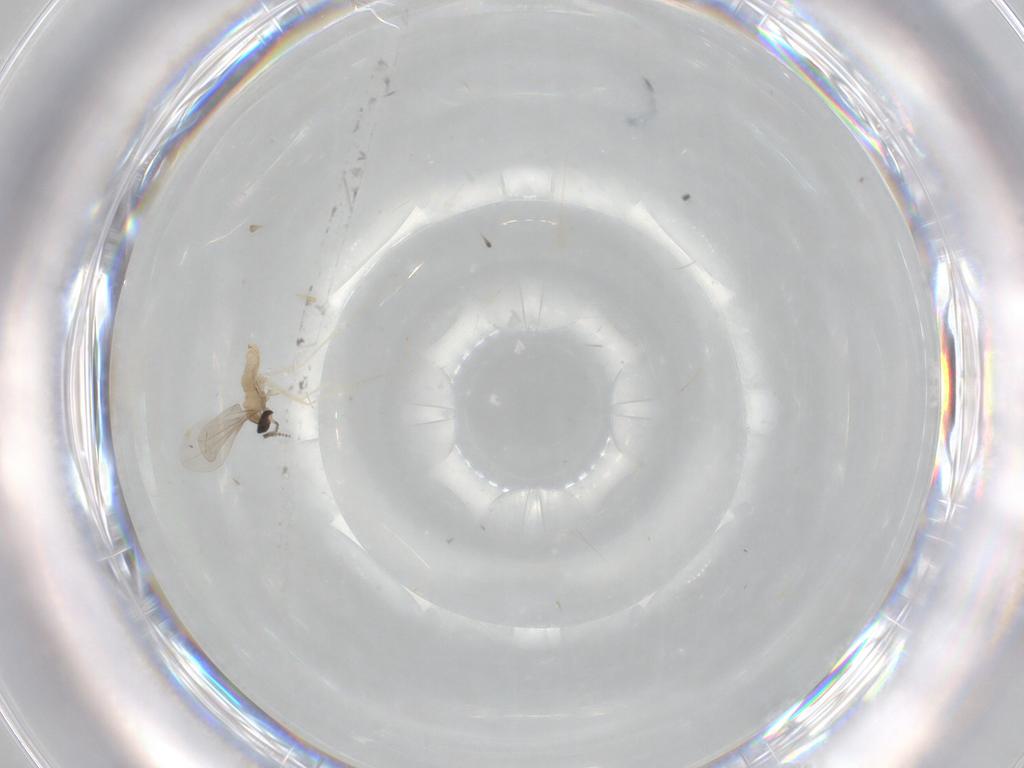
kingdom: Animalia
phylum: Arthropoda
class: Insecta
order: Diptera
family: Cecidomyiidae
